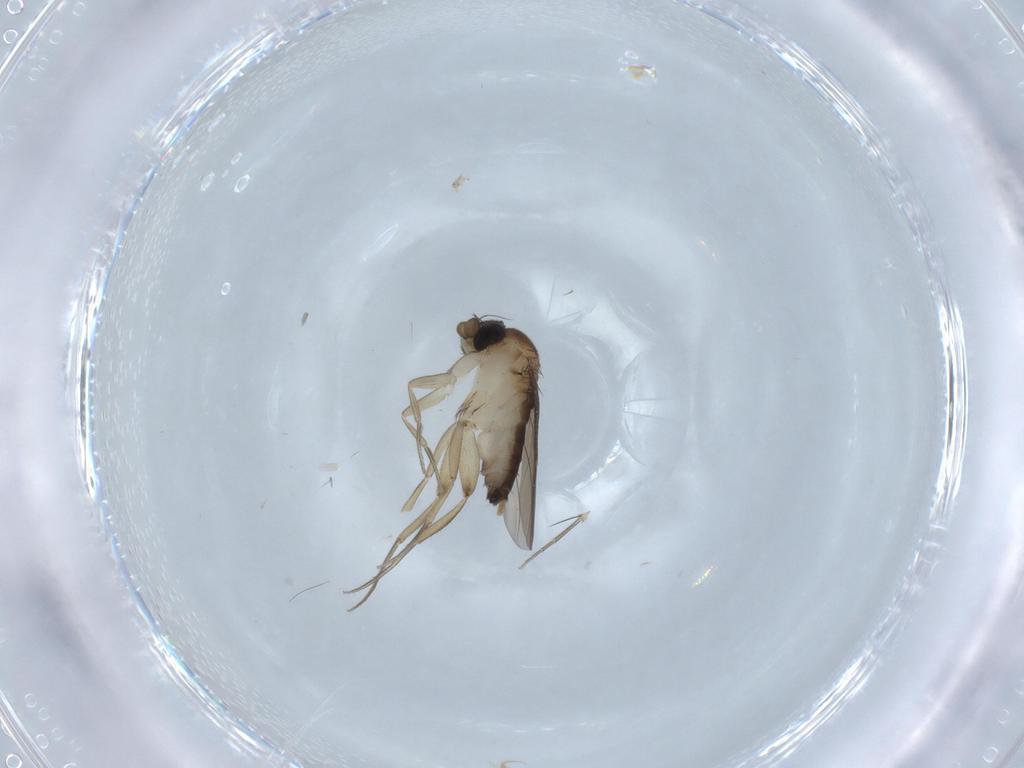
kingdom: Animalia
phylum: Arthropoda
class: Insecta
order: Diptera
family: Phoridae
